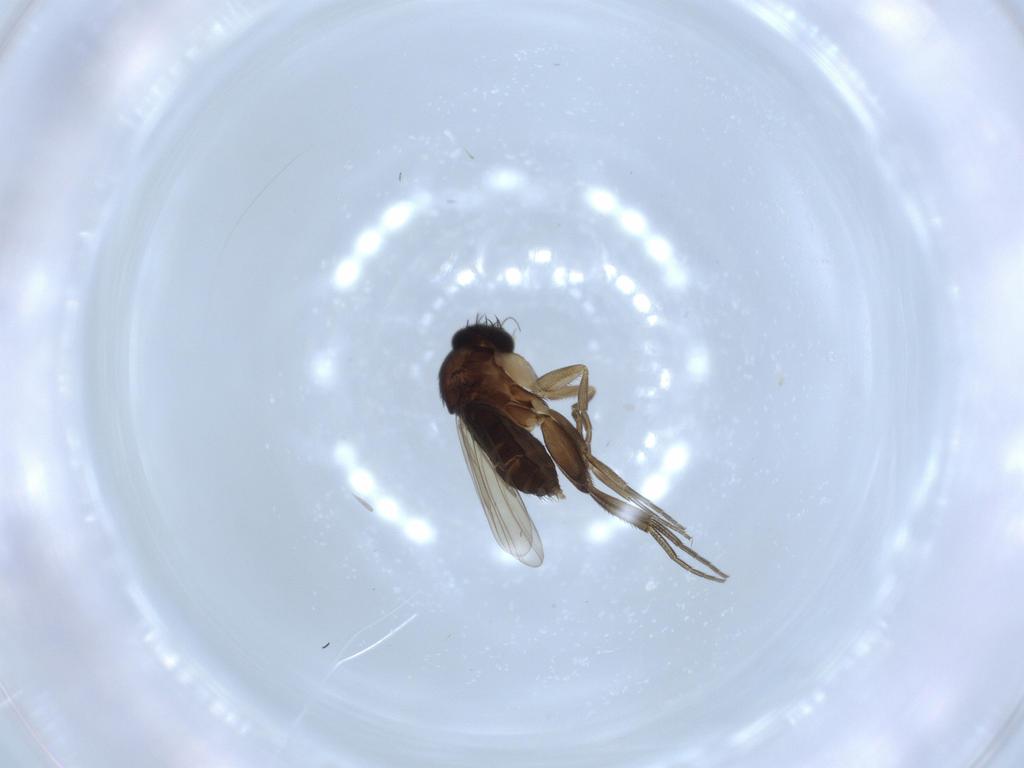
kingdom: Animalia
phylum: Arthropoda
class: Insecta
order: Diptera
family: Phoridae
